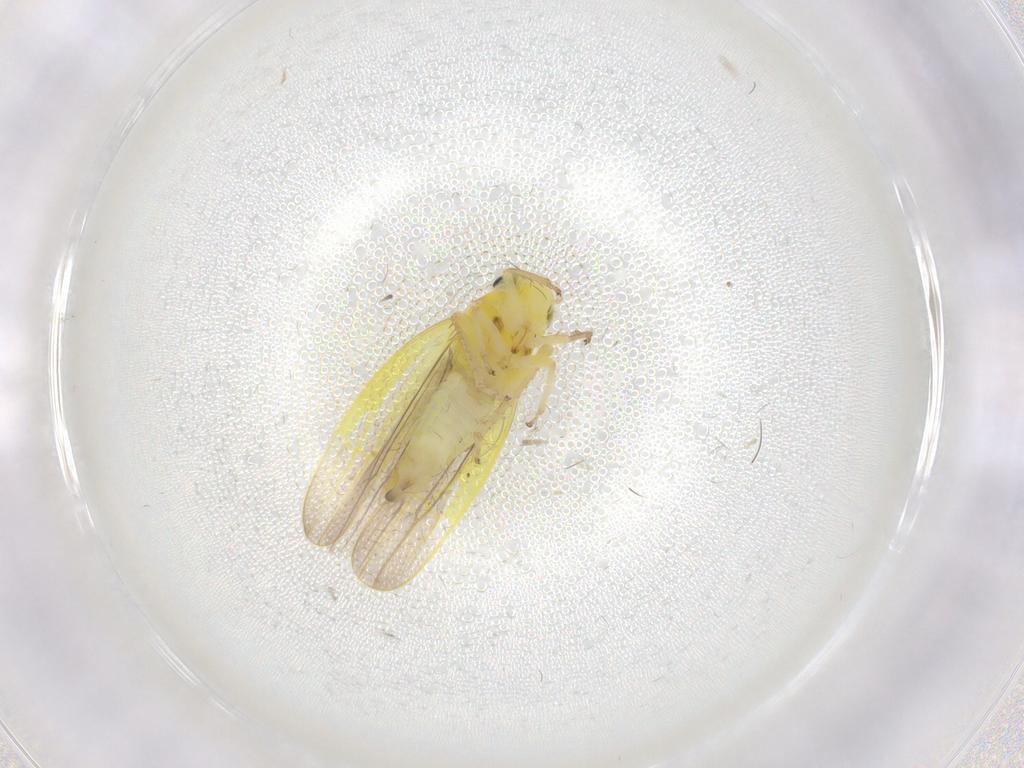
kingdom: Animalia
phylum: Arthropoda
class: Insecta
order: Hemiptera
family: Cicadellidae
